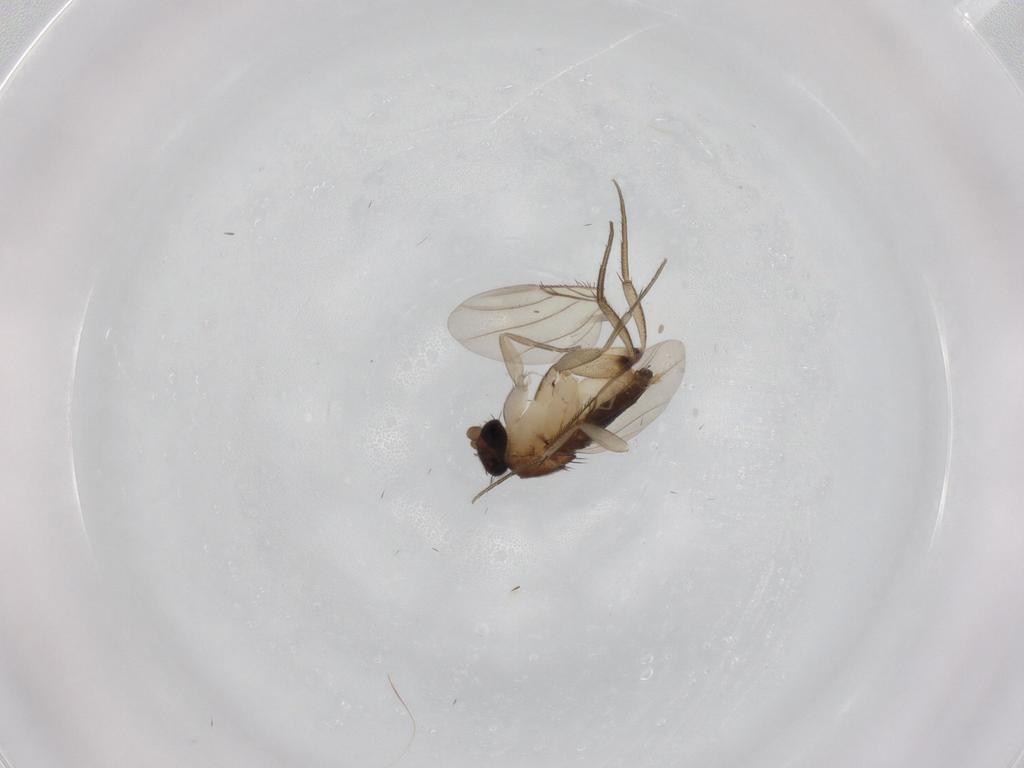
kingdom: Animalia
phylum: Arthropoda
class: Insecta
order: Diptera
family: Phoridae
